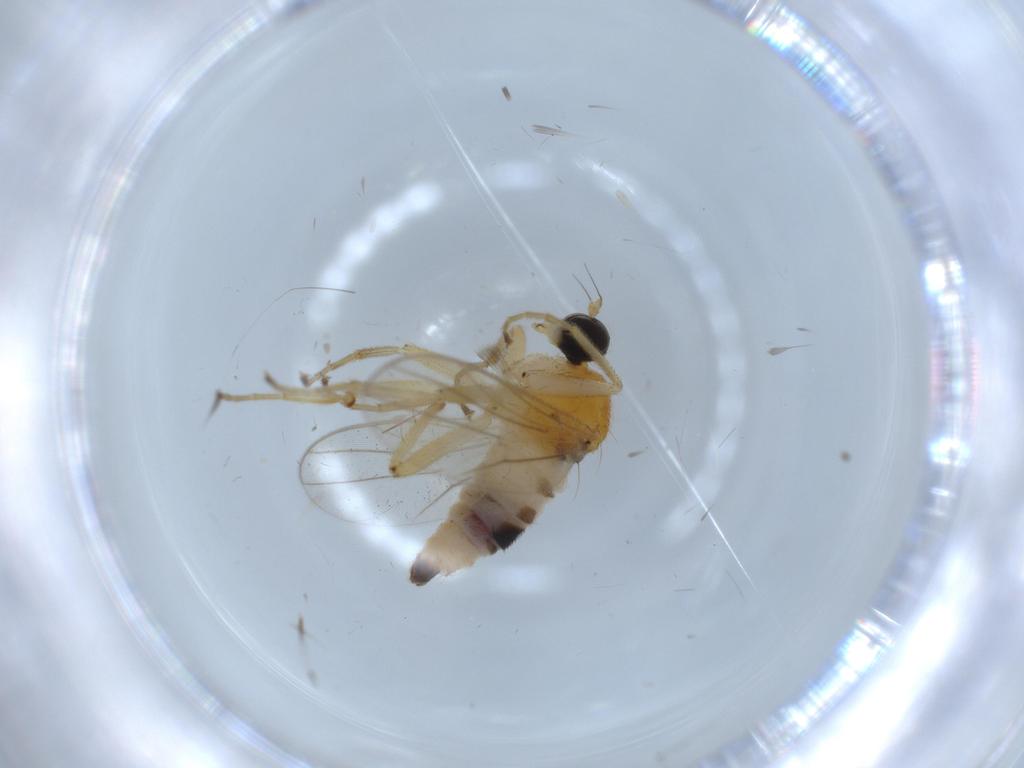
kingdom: Animalia
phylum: Arthropoda
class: Insecta
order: Diptera
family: Hybotidae
